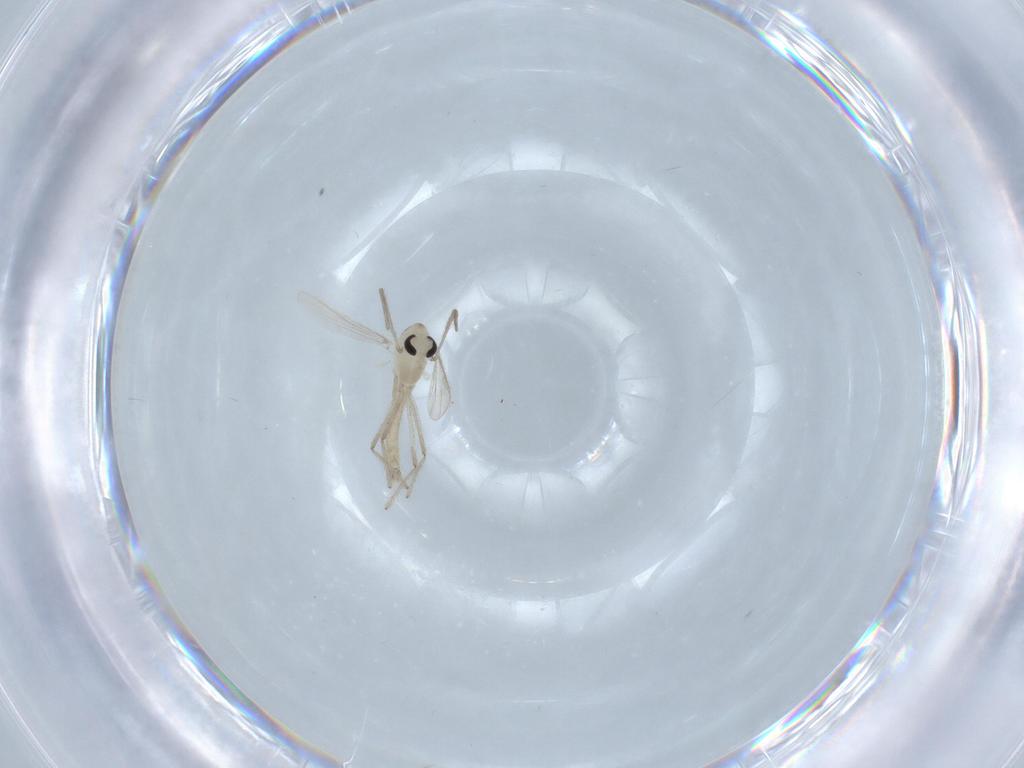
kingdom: Animalia
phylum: Arthropoda
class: Insecta
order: Diptera
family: Chironomidae
